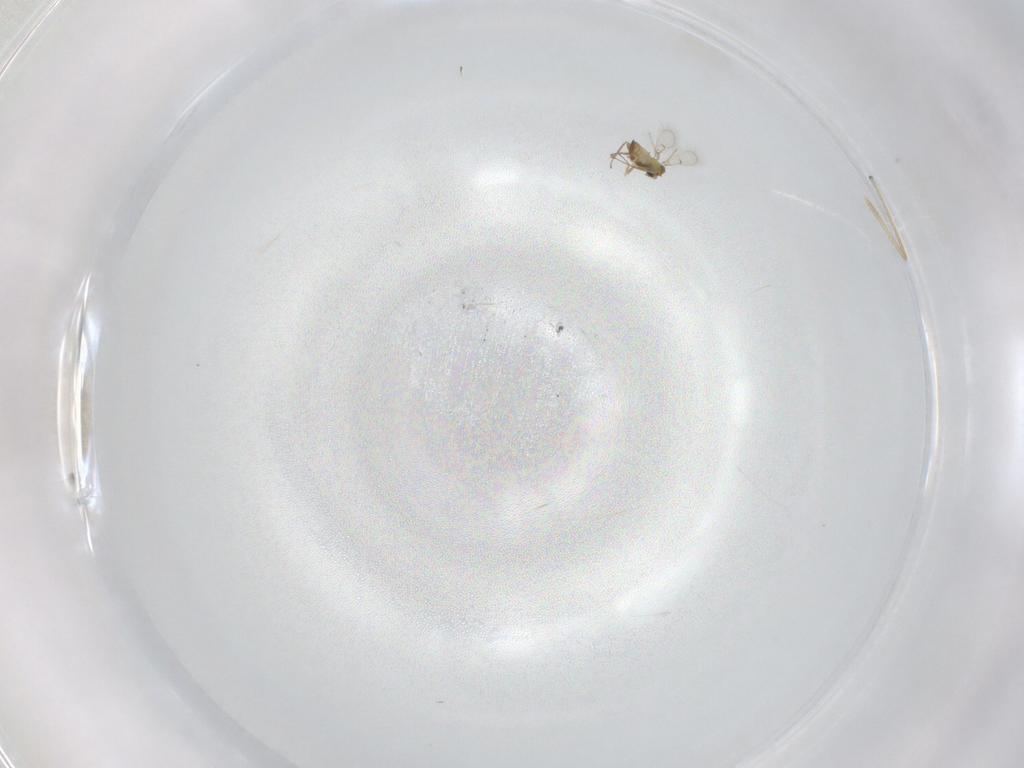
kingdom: Animalia
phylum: Arthropoda
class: Insecta
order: Hymenoptera
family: Trichogrammatidae
